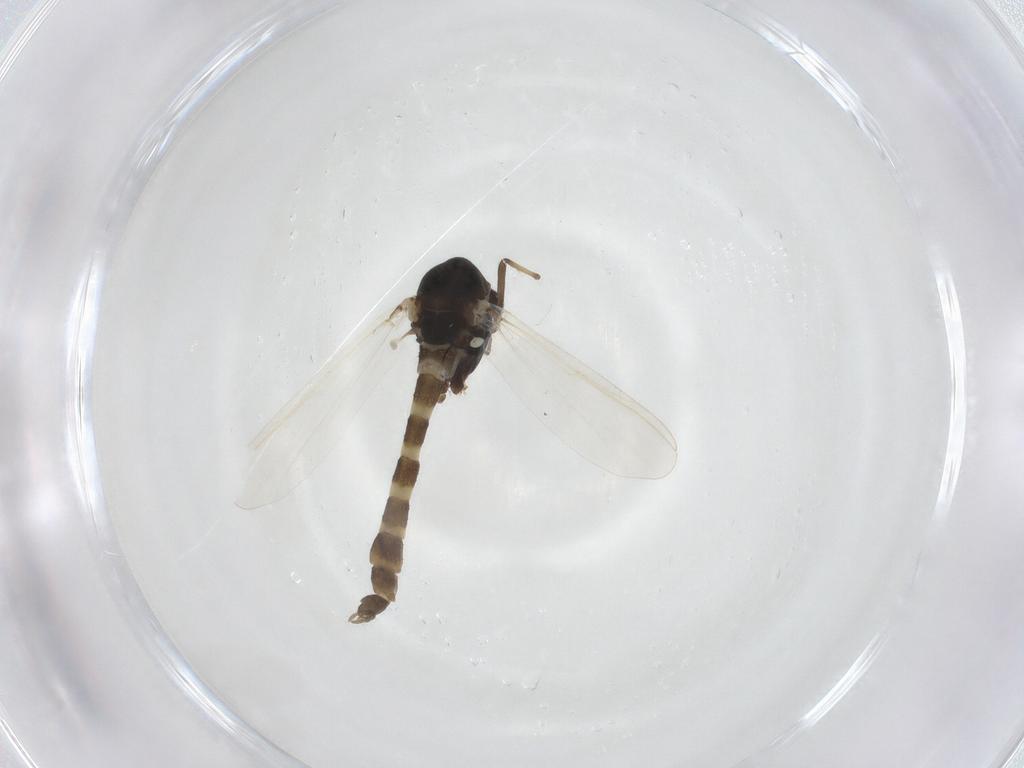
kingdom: Animalia
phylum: Arthropoda
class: Insecta
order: Diptera
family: Chironomidae
